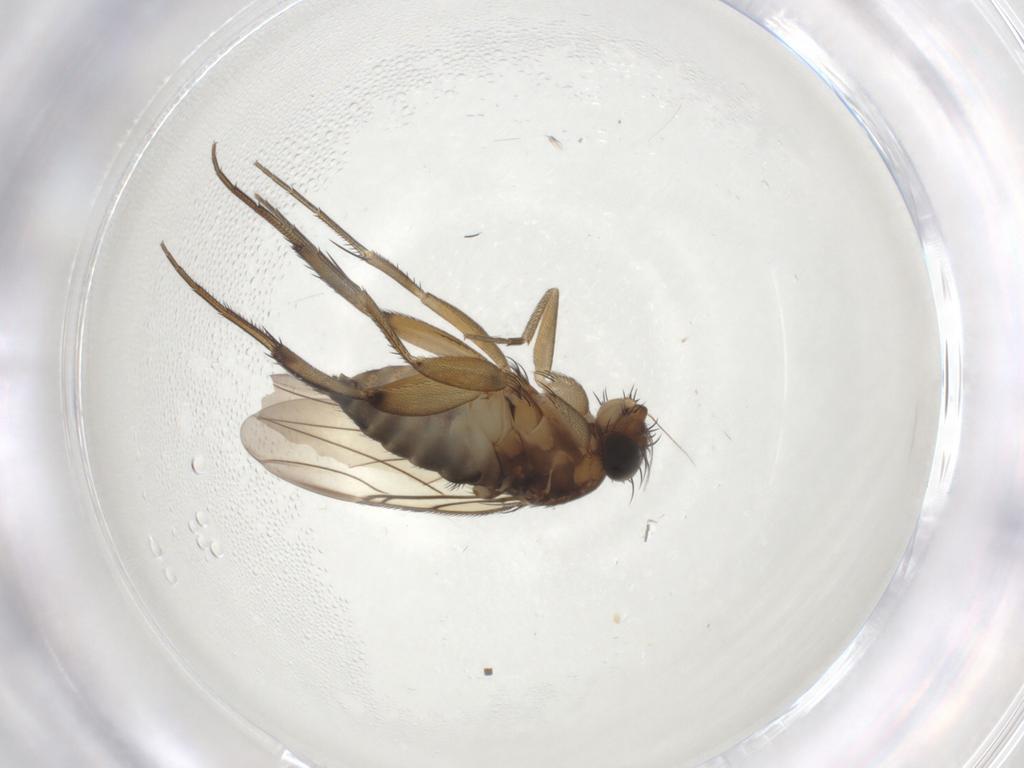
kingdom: Animalia
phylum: Arthropoda
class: Insecta
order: Diptera
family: Phoridae
